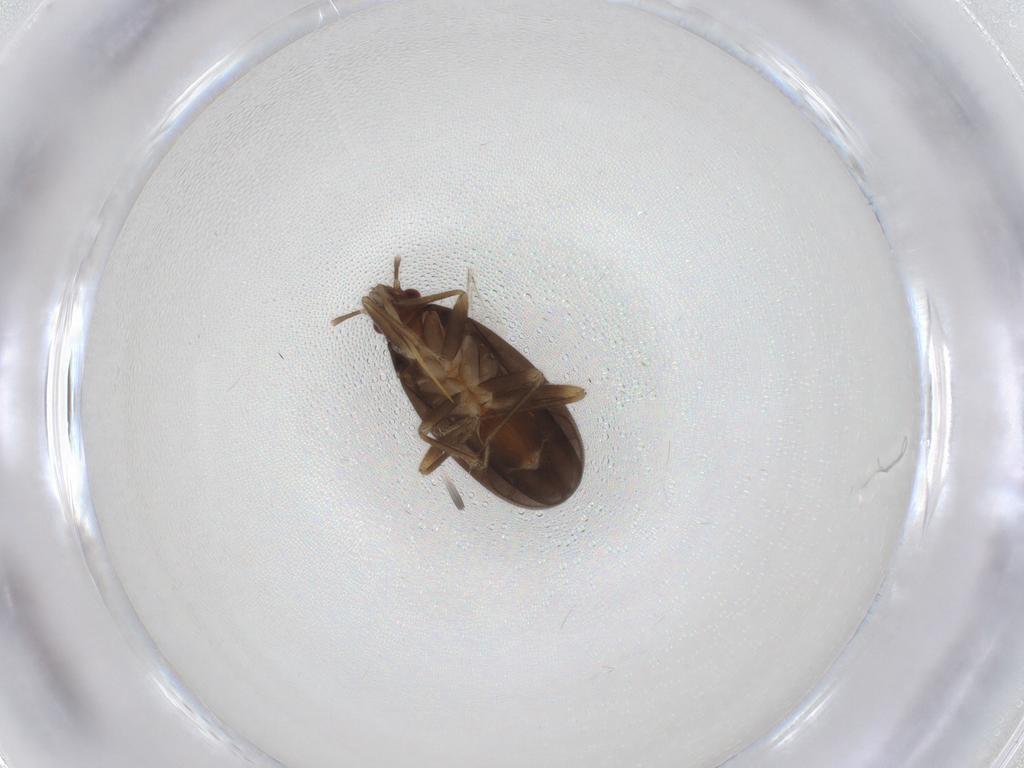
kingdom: Animalia
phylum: Arthropoda
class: Insecta
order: Hemiptera
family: Ceratocombidae
